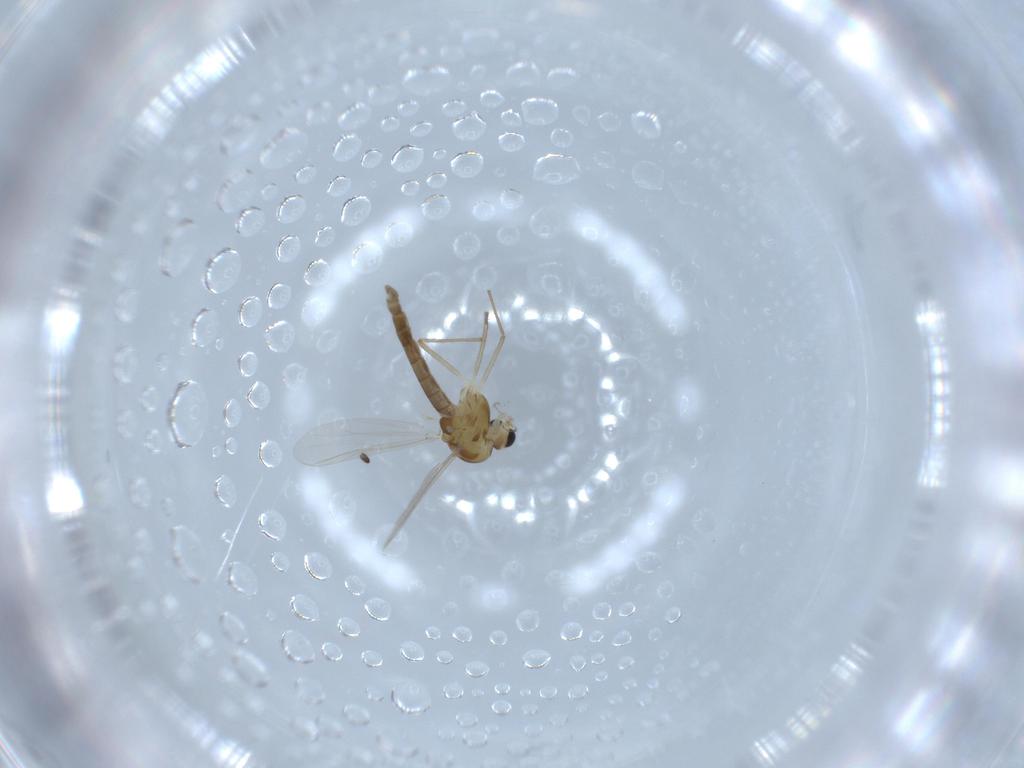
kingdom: Animalia
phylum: Arthropoda
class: Insecta
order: Diptera
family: Chironomidae
